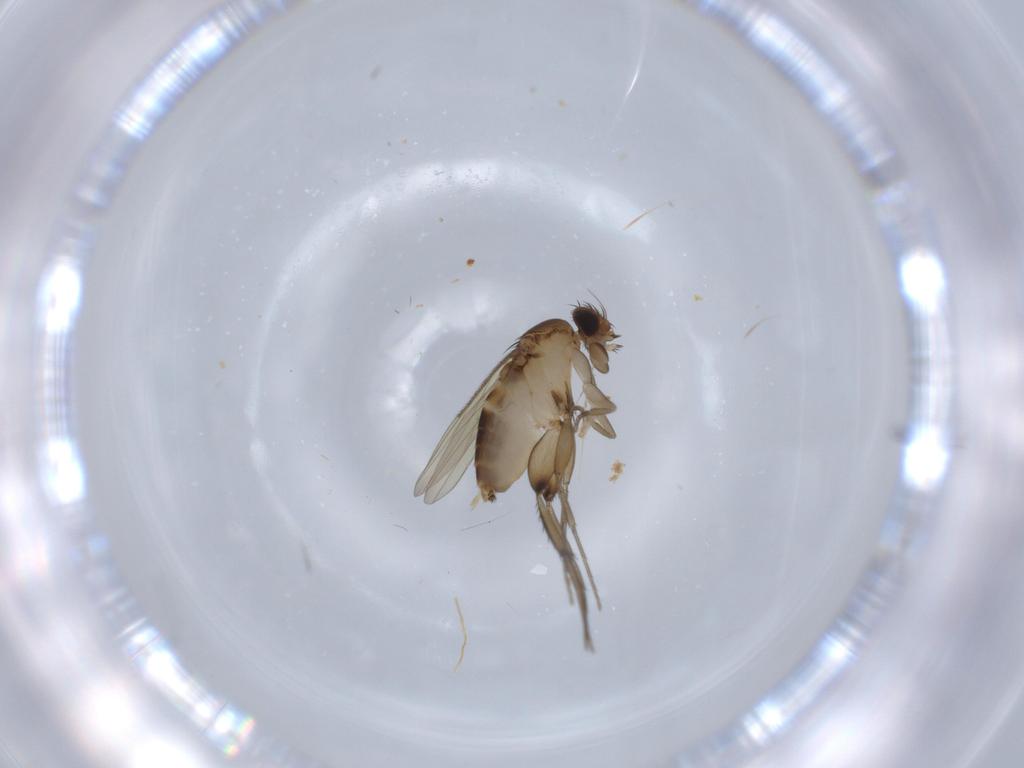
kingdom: Animalia
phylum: Arthropoda
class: Insecta
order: Diptera
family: Phoridae
